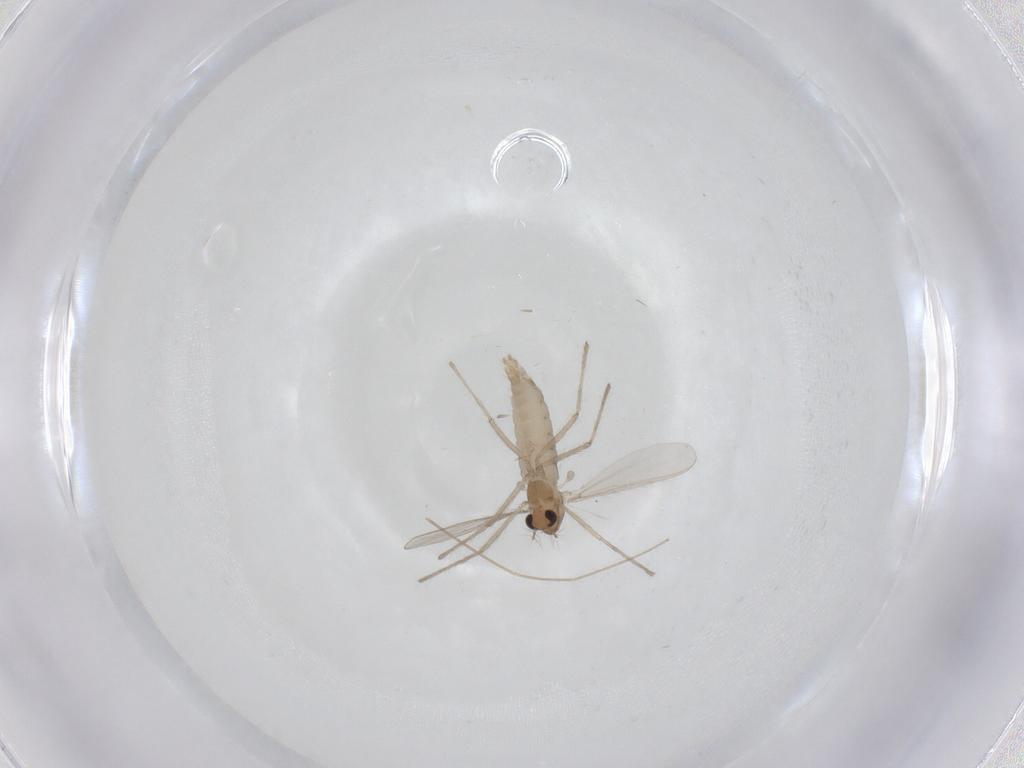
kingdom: Animalia
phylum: Arthropoda
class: Insecta
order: Diptera
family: Chironomidae
